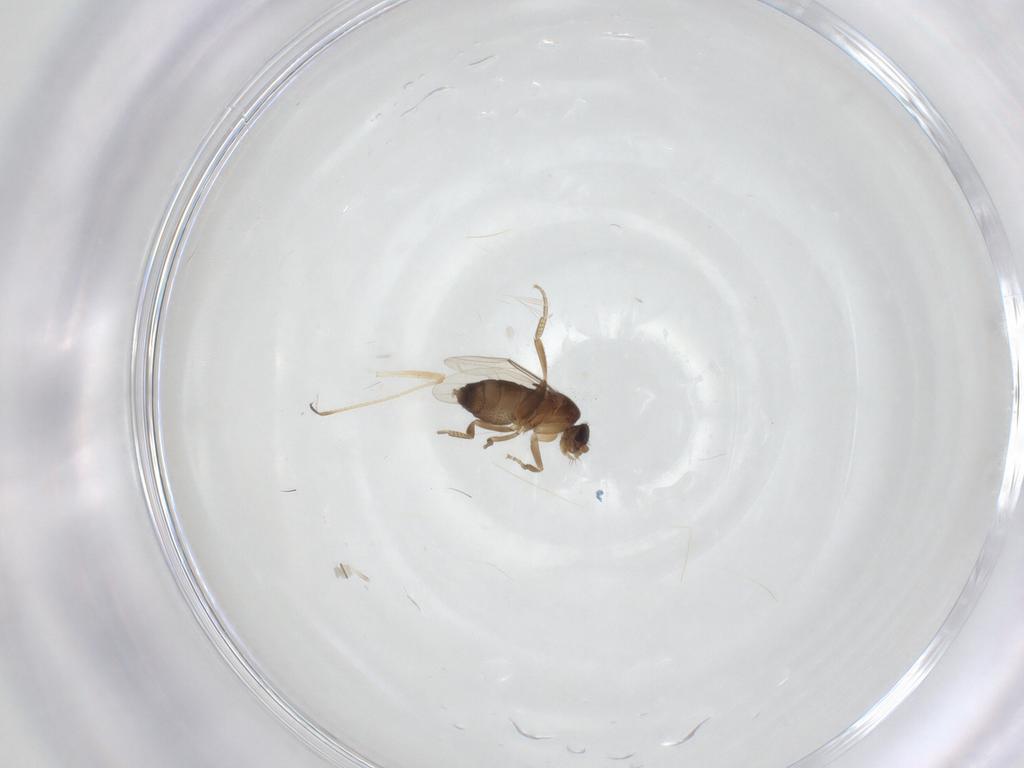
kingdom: Animalia
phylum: Arthropoda
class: Insecta
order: Diptera
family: Phoridae
